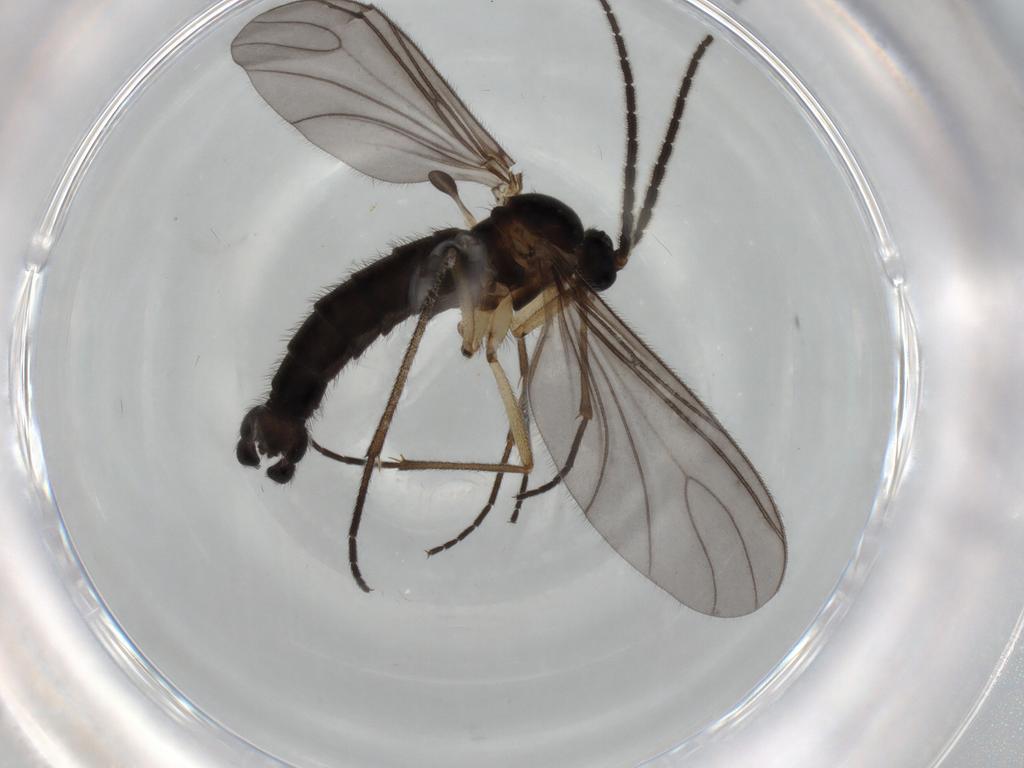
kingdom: Animalia
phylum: Arthropoda
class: Insecta
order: Diptera
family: Sciaridae
